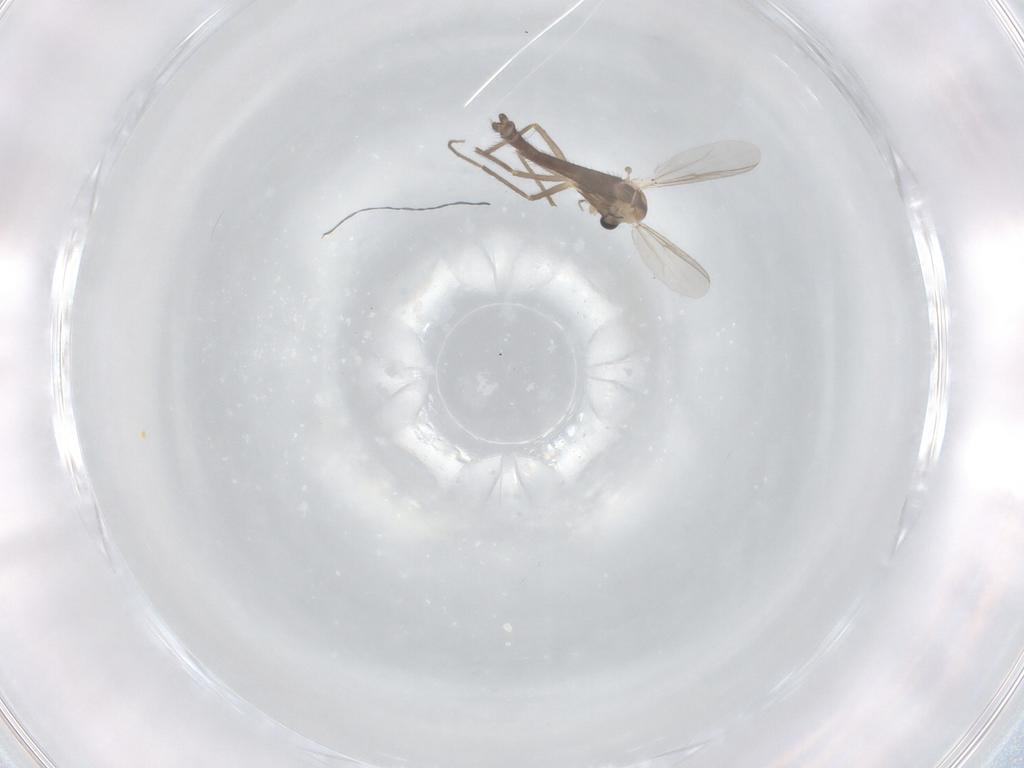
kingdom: Animalia
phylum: Arthropoda
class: Insecta
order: Diptera
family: Chironomidae
